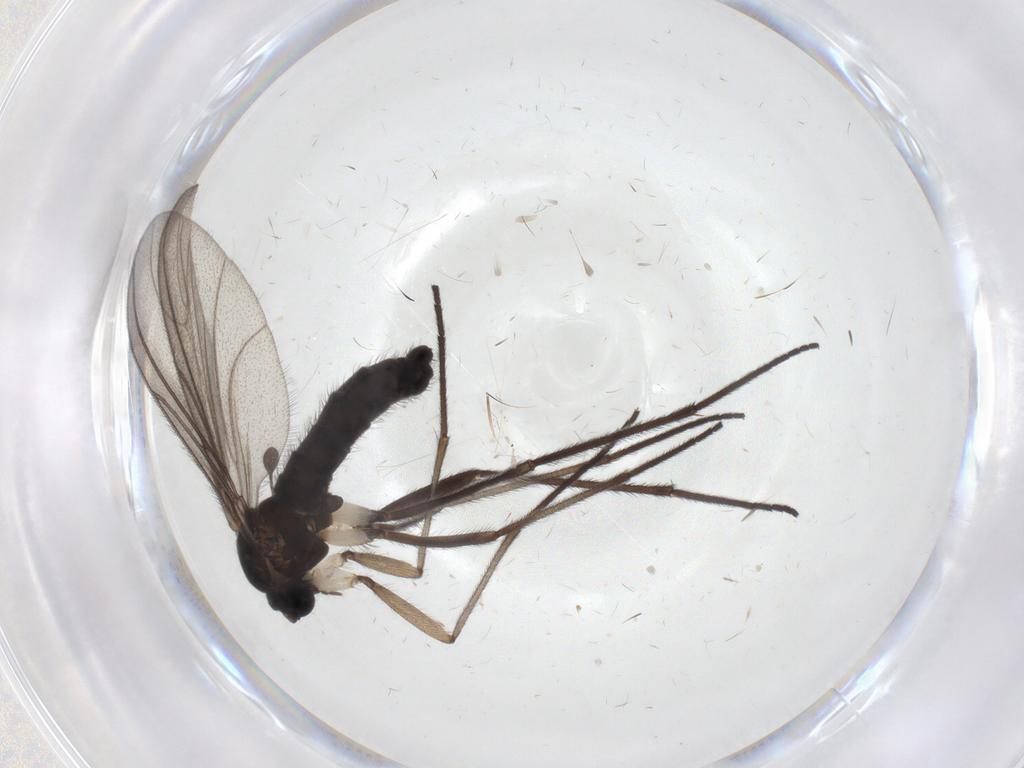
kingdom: Animalia
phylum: Arthropoda
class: Insecta
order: Diptera
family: Sciaridae
